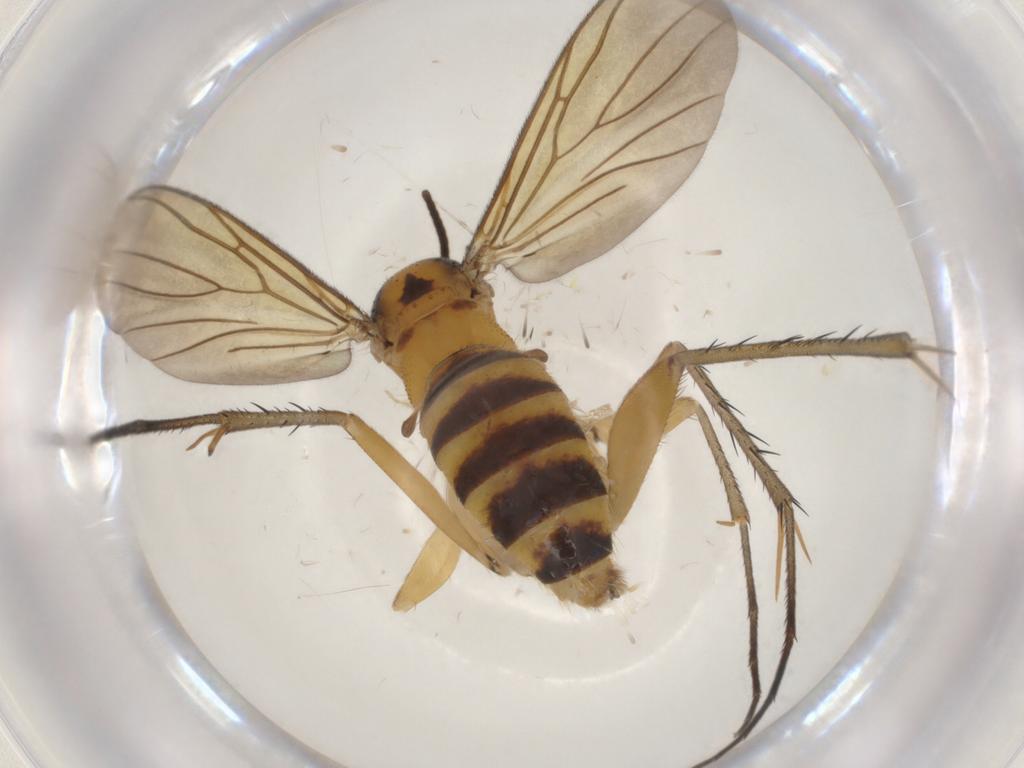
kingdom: Animalia
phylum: Arthropoda
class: Insecta
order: Diptera
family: Mycetophilidae
